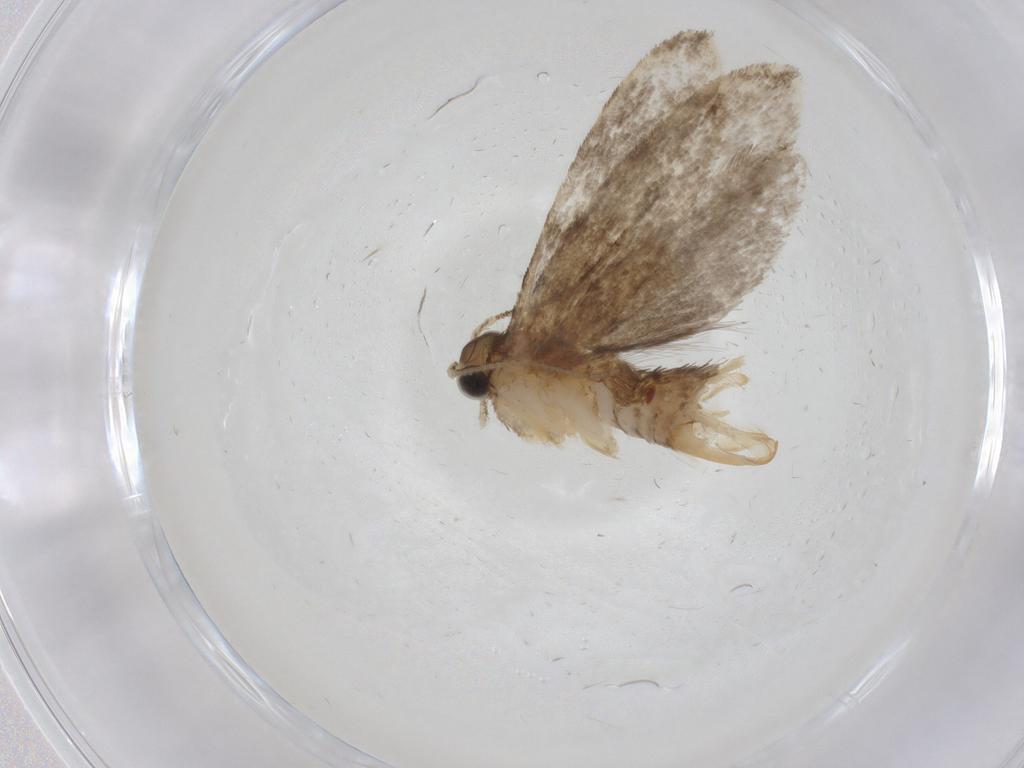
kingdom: Animalia
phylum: Arthropoda
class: Insecta
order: Lepidoptera
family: Tineidae
